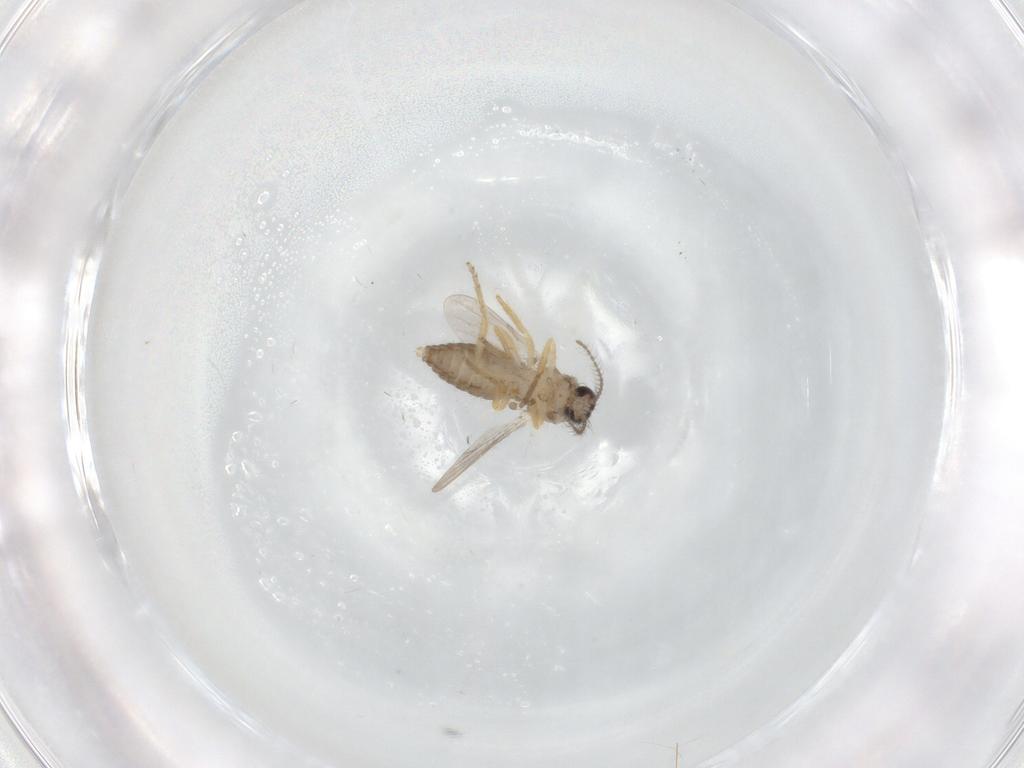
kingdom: Animalia
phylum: Arthropoda
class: Insecta
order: Diptera
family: Ceratopogonidae
